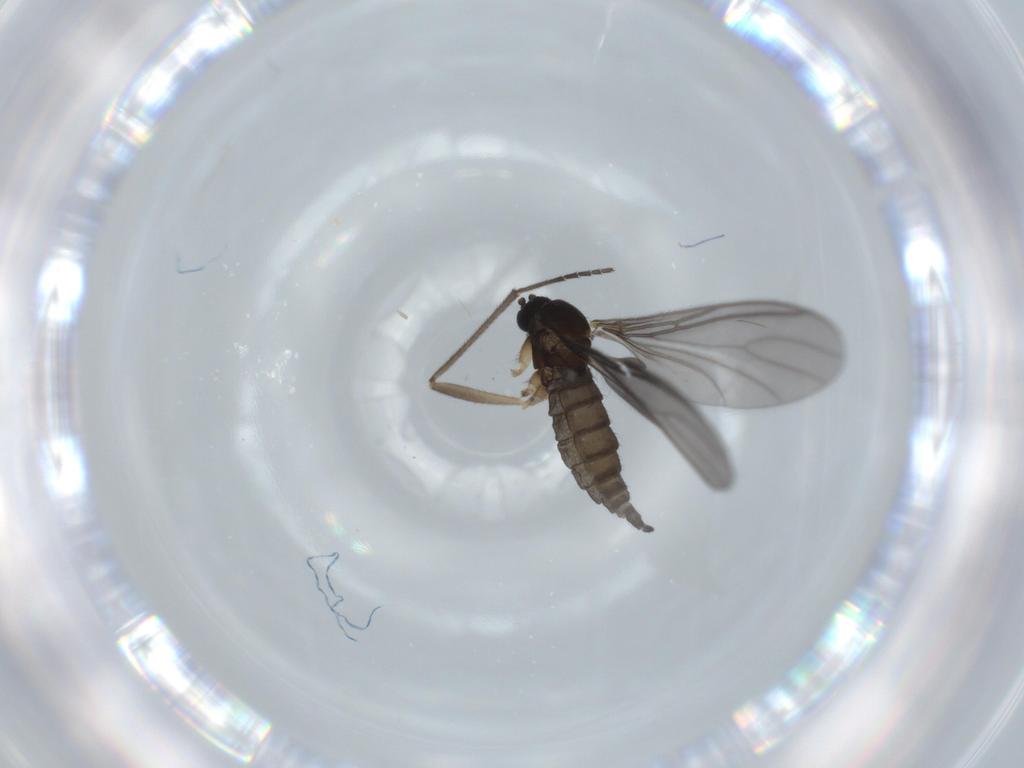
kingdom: Animalia
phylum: Arthropoda
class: Insecta
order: Diptera
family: Sciaridae
